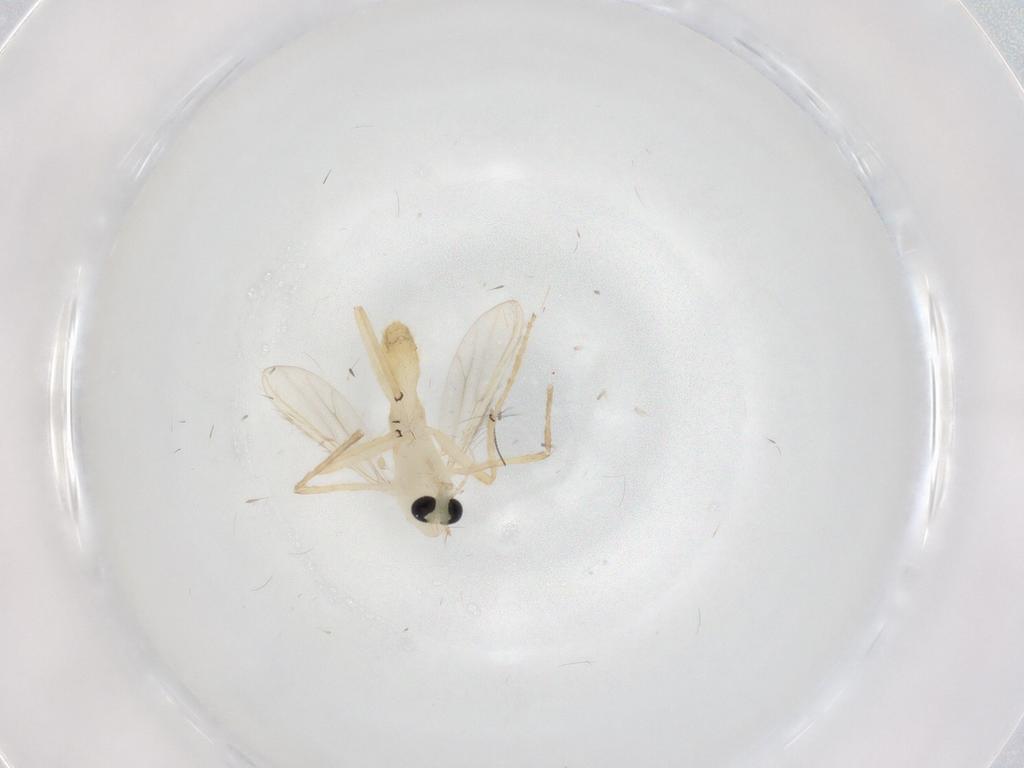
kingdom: Animalia
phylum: Arthropoda
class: Insecta
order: Diptera
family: Chironomidae
